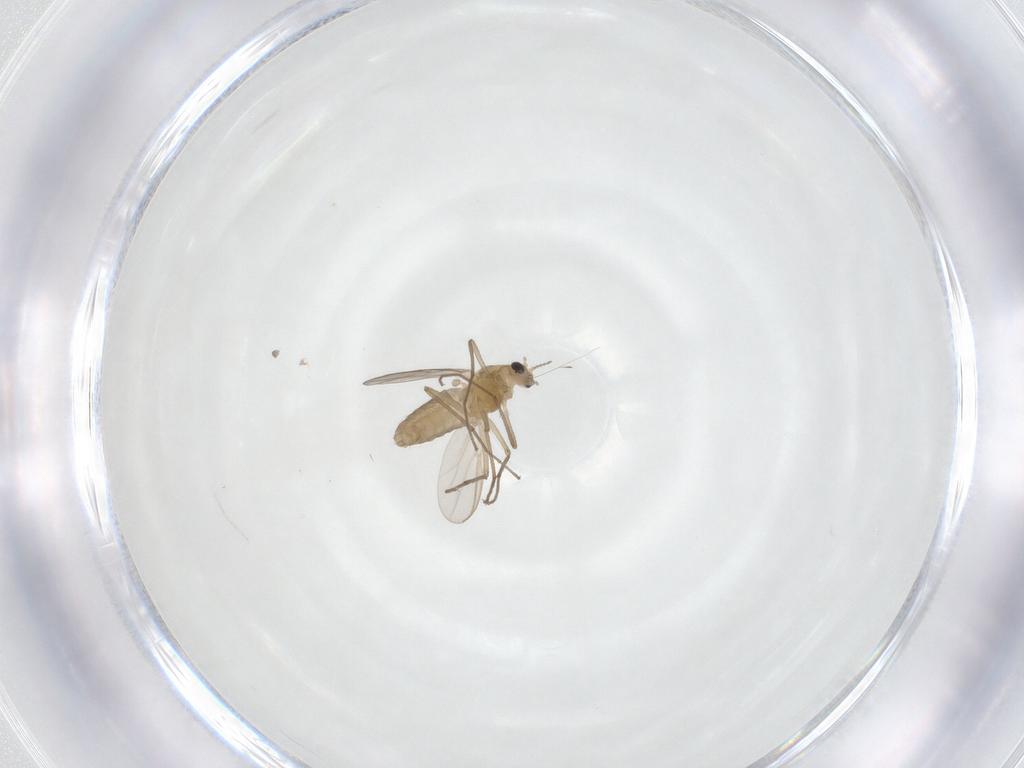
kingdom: Animalia
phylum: Arthropoda
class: Insecta
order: Diptera
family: Chironomidae
